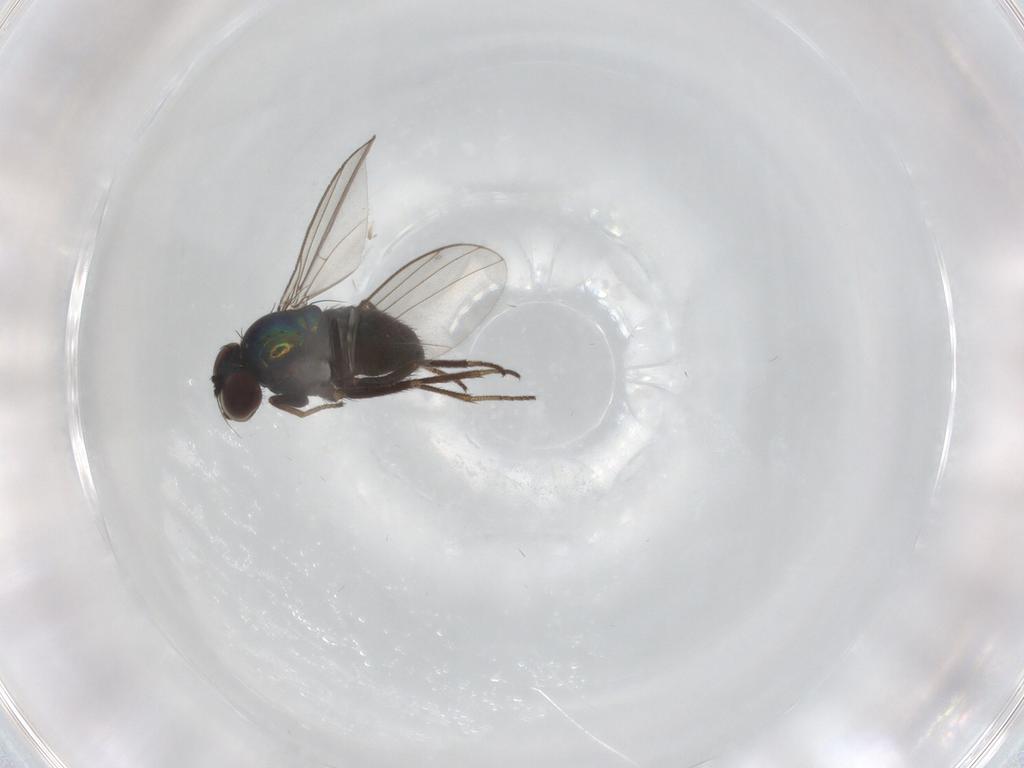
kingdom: Animalia
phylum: Arthropoda
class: Insecta
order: Diptera
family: Dolichopodidae
